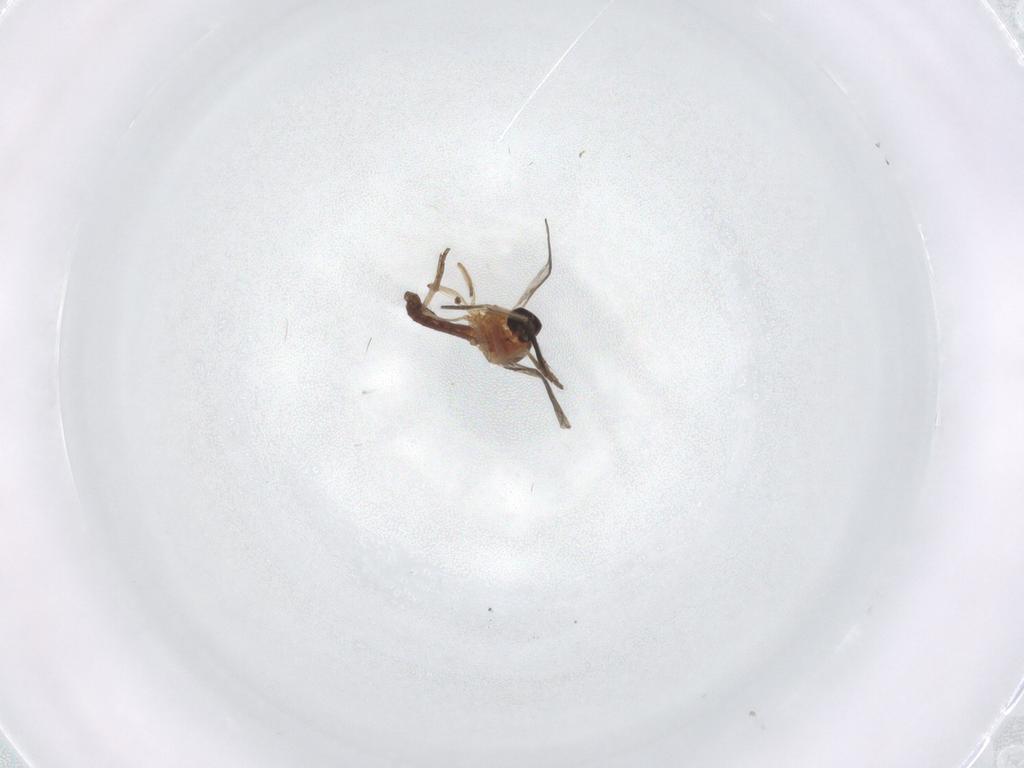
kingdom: Animalia
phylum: Arthropoda
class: Insecta
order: Diptera
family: Ceratopogonidae
